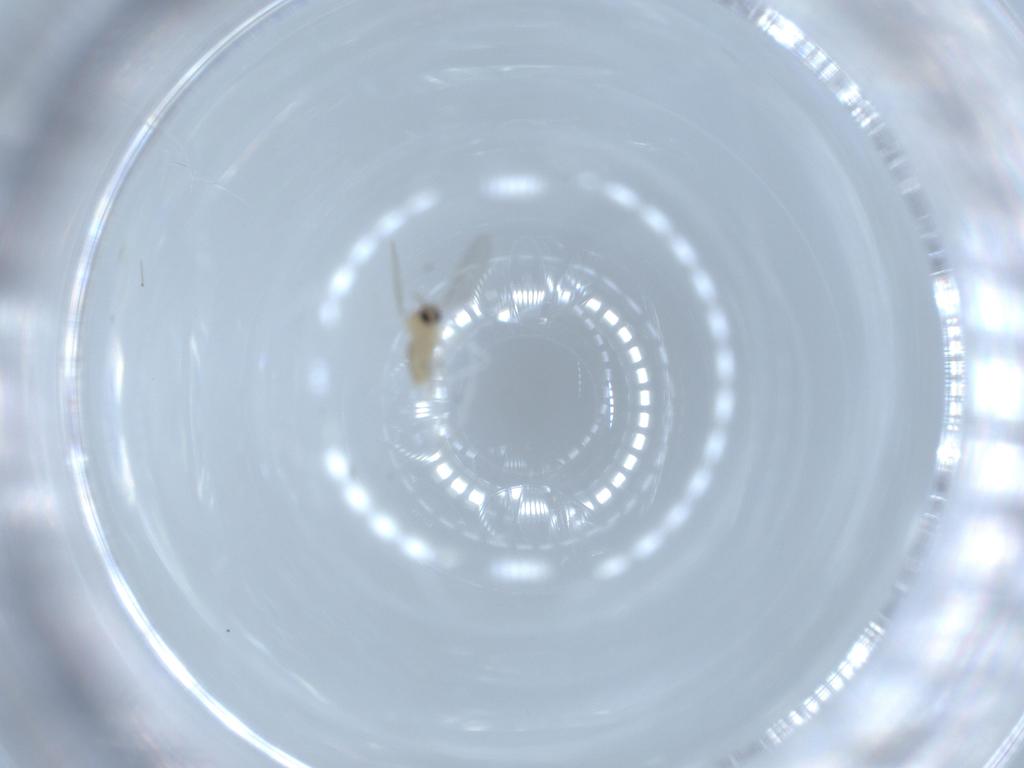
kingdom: Animalia
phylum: Arthropoda
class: Insecta
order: Diptera
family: Cecidomyiidae
